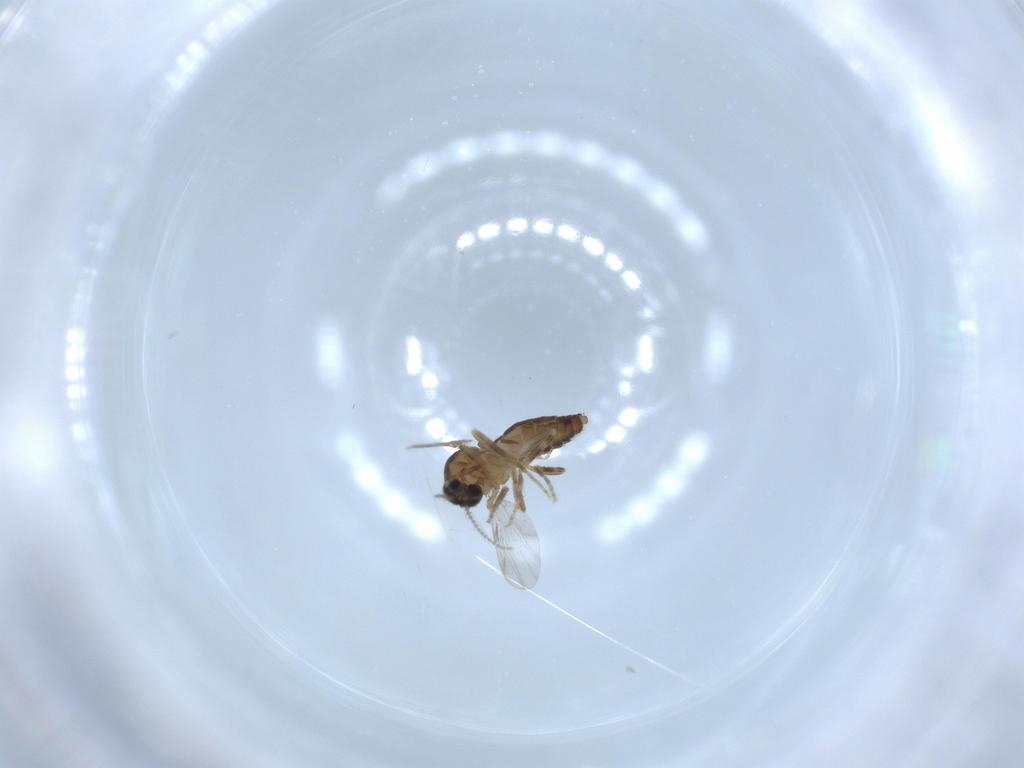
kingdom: Animalia
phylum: Arthropoda
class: Insecta
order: Diptera
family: Ceratopogonidae
